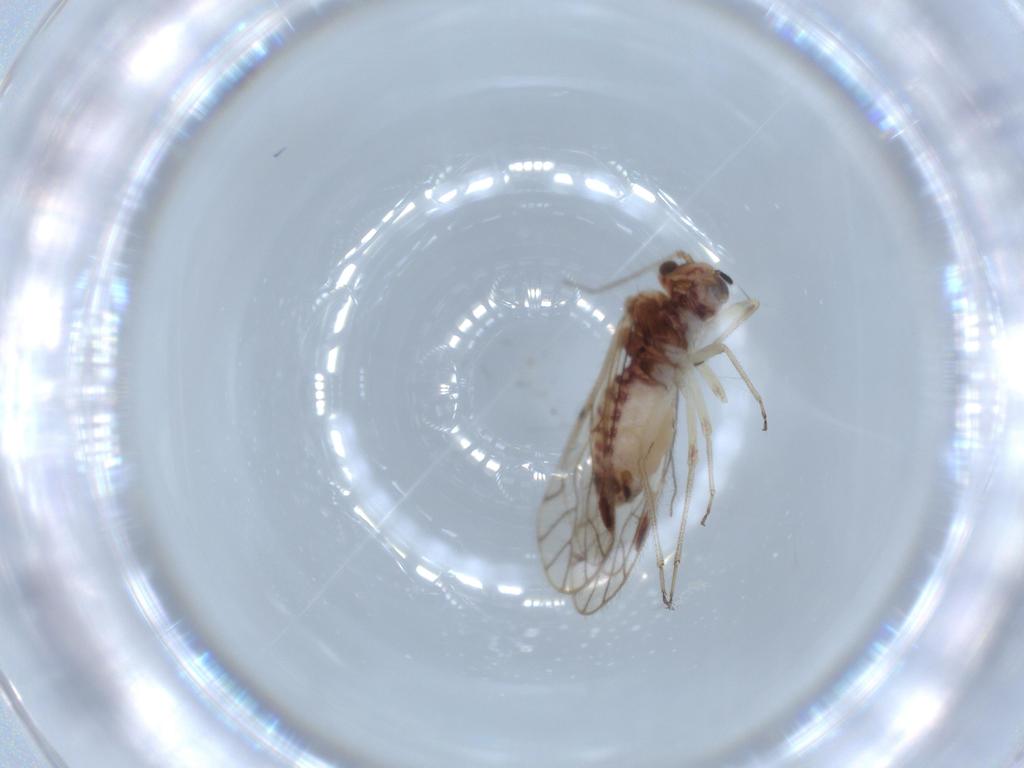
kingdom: Animalia
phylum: Arthropoda
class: Insecta
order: Psocodea
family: Pseudocaeciliidae
